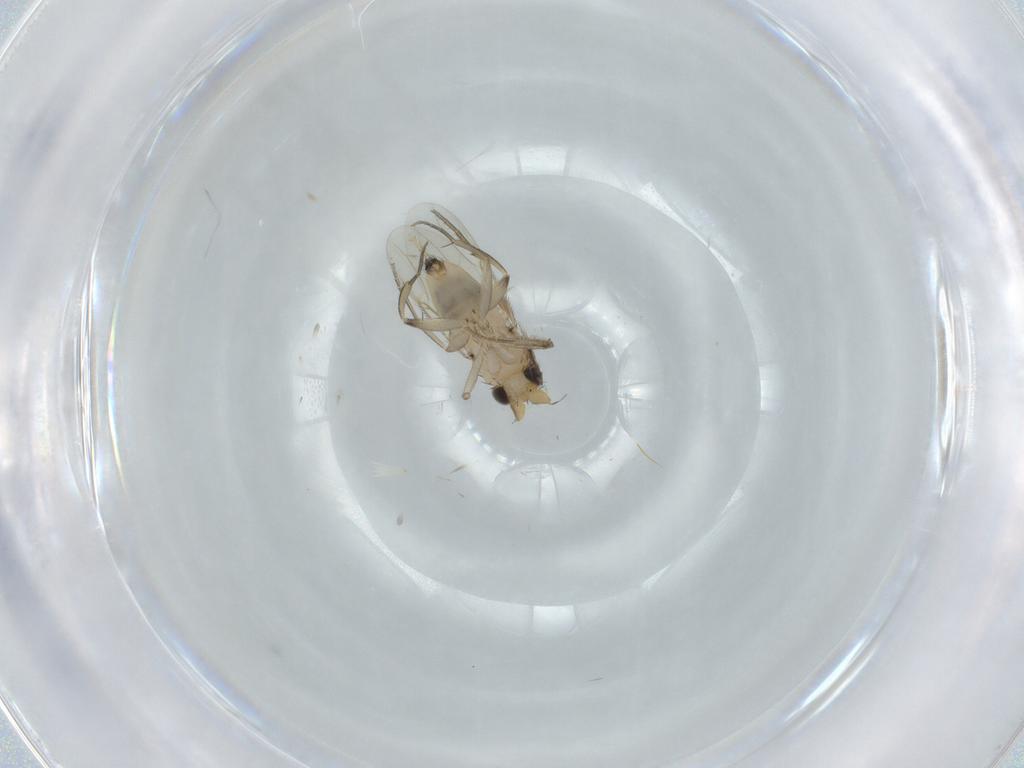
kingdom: Animalia
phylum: Arthropoda
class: Insecta
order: Diptera
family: Phoridae
